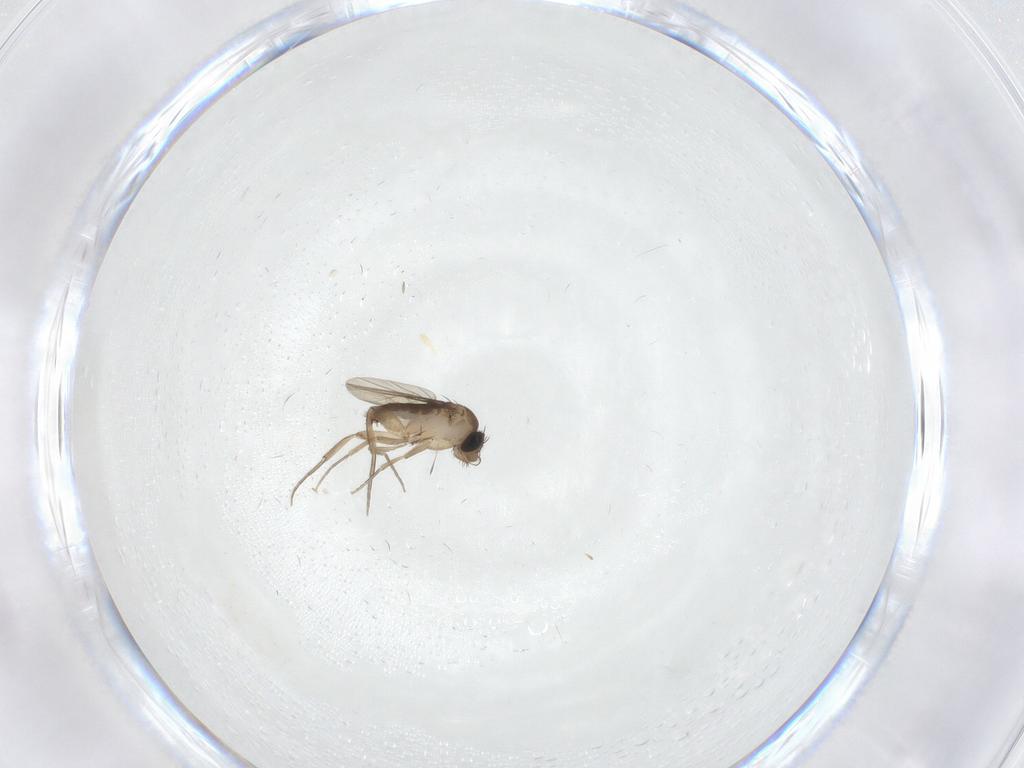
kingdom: Animalia
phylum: Arthropoda
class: Insecta
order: Diptera
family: Phoridae
